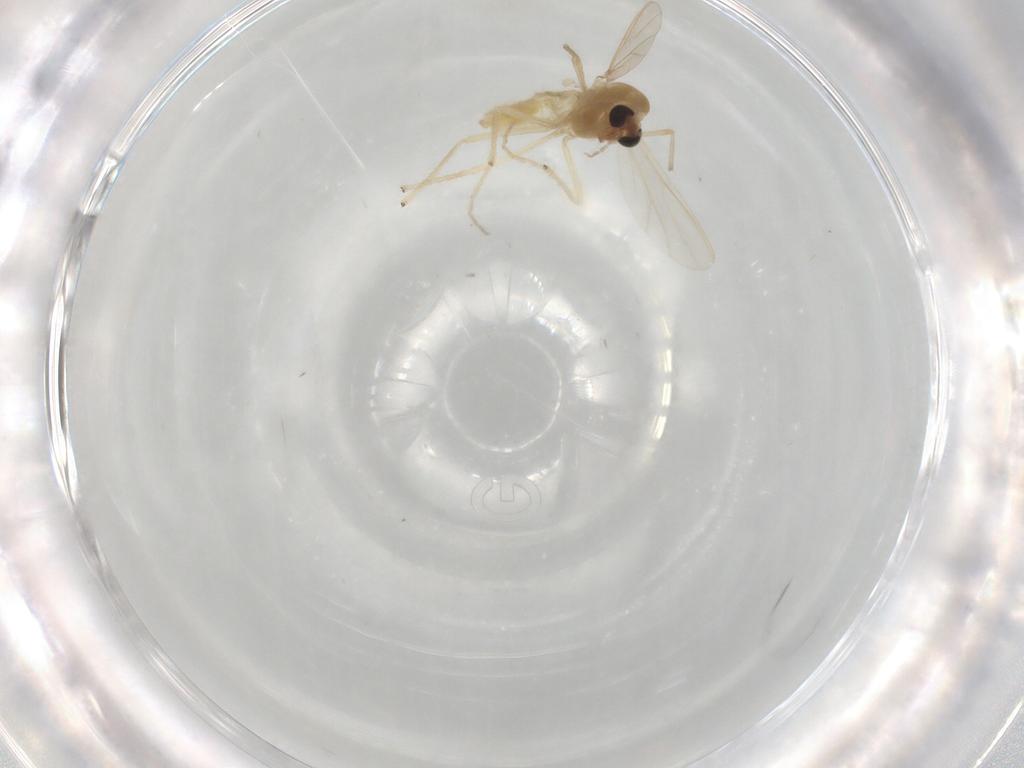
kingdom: Animalia
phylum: Arthropoda
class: Insecta
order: Diptera
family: Chironomidae
